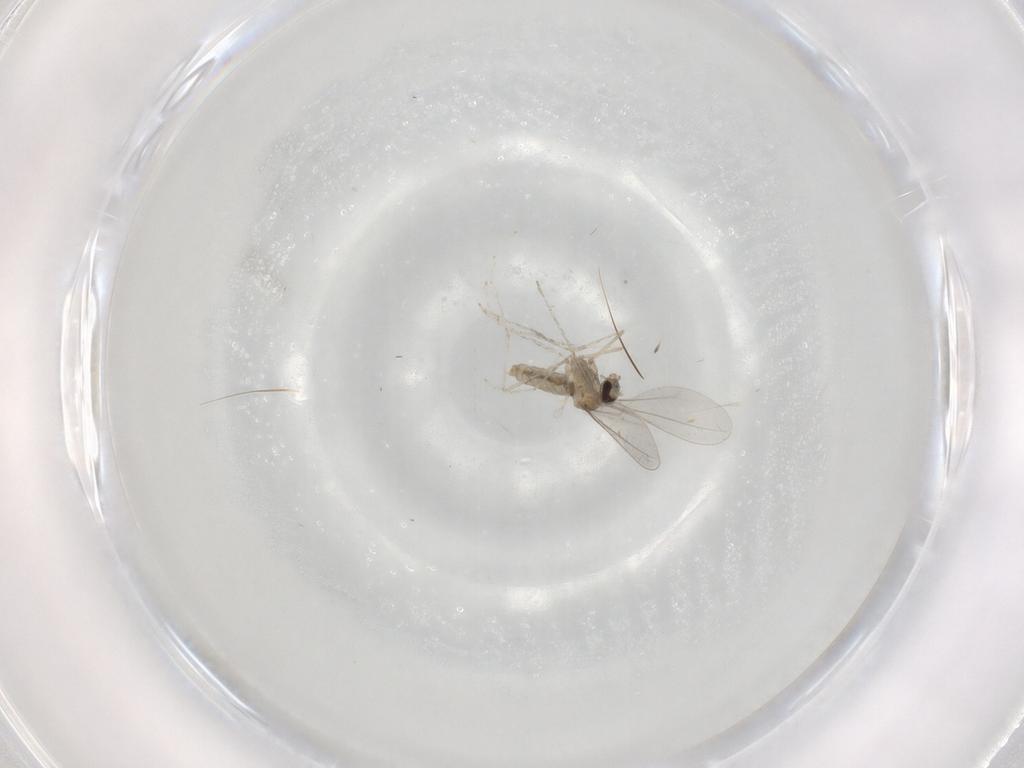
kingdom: Animalia
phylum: Arthropoda
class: Insecta
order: Diptera
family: Cecidomyiidae
